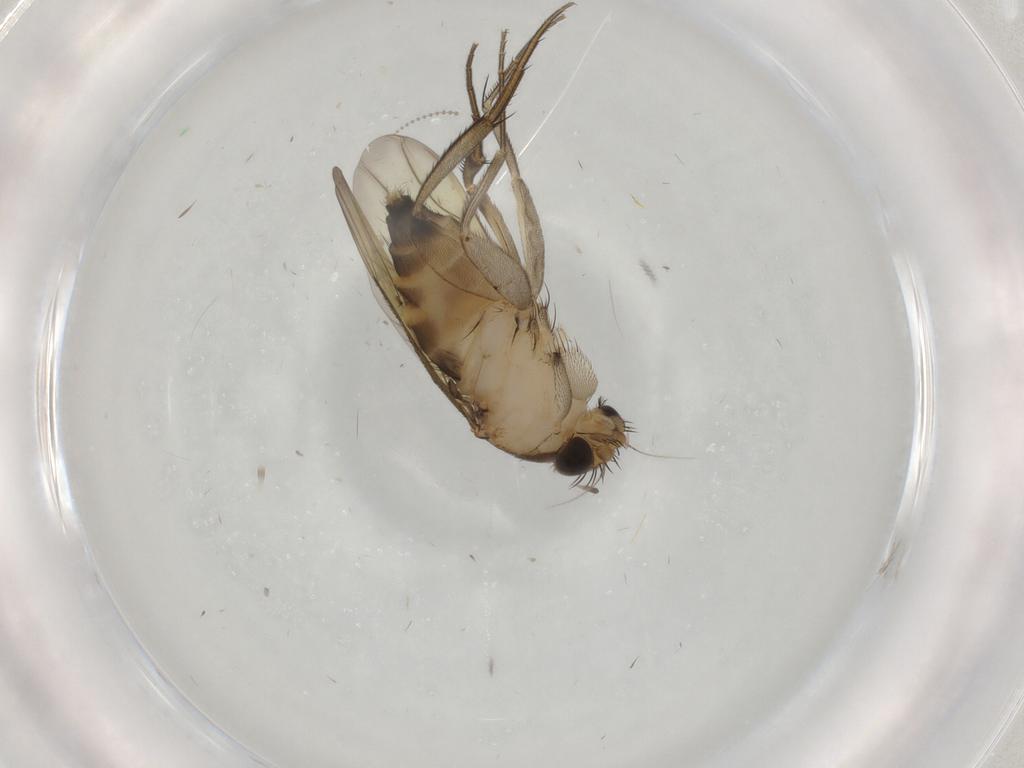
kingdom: Animalia
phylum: Arthropoda
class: Insecta
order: Diptera
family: Phoridae
